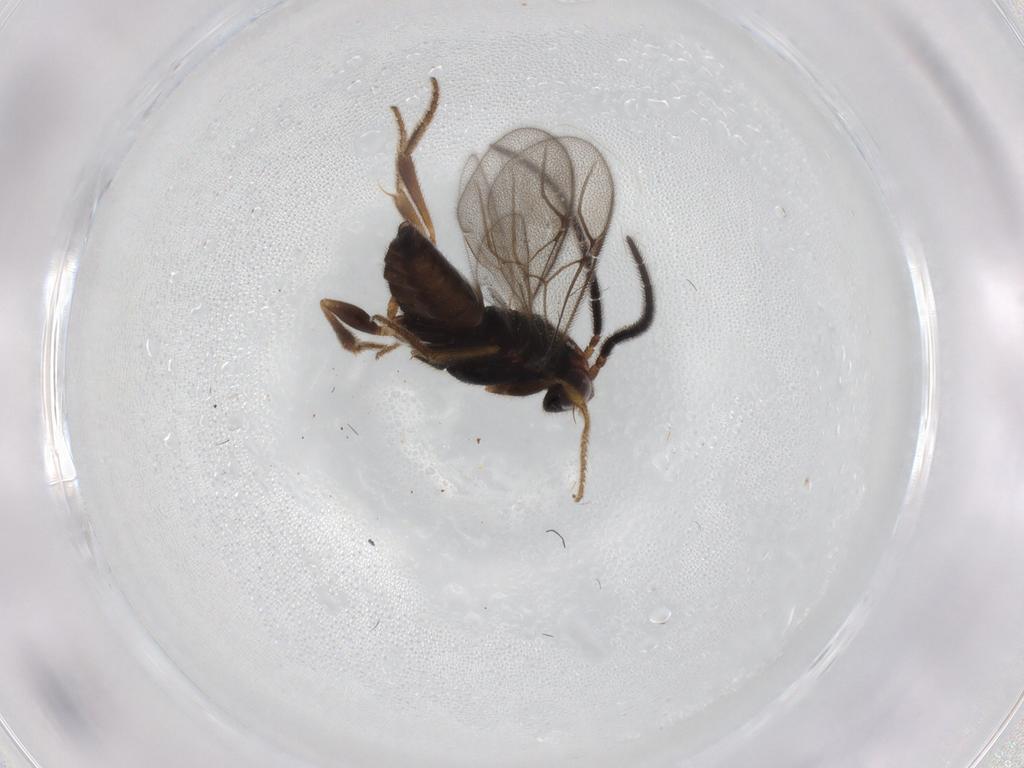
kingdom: Animalia
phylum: Arthropoda
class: Insecta
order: Hymenoptera
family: Dryinidae
